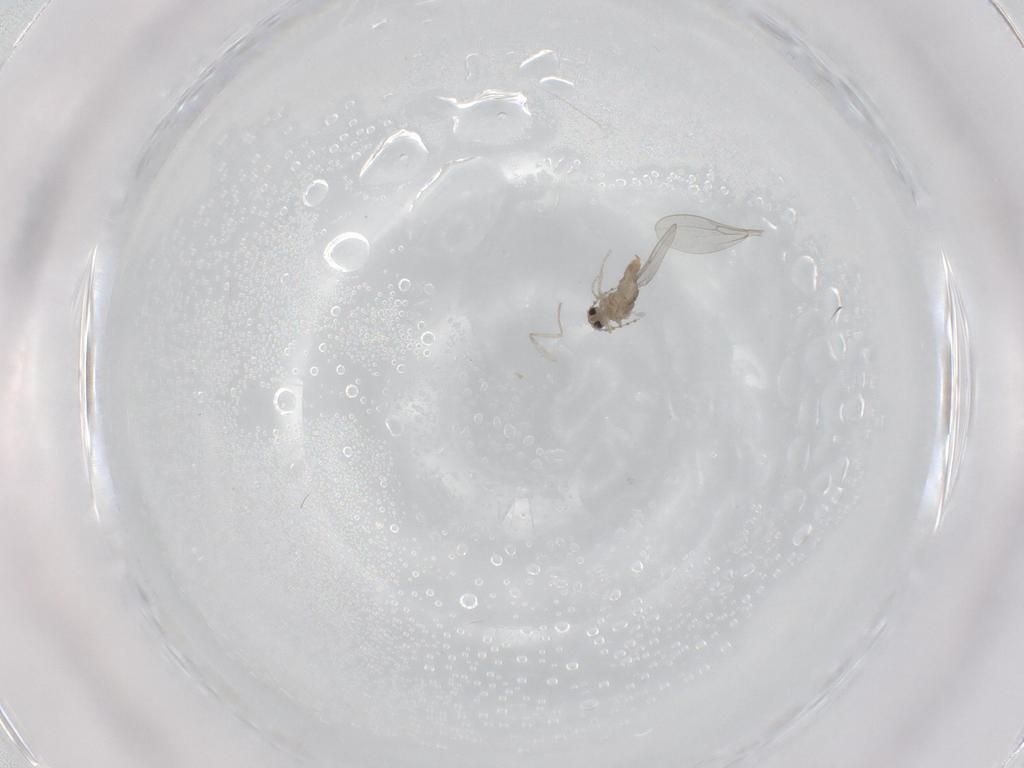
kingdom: Animalia
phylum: Arthropoda
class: Insecta
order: Diptera
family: Cecidomyiidae
